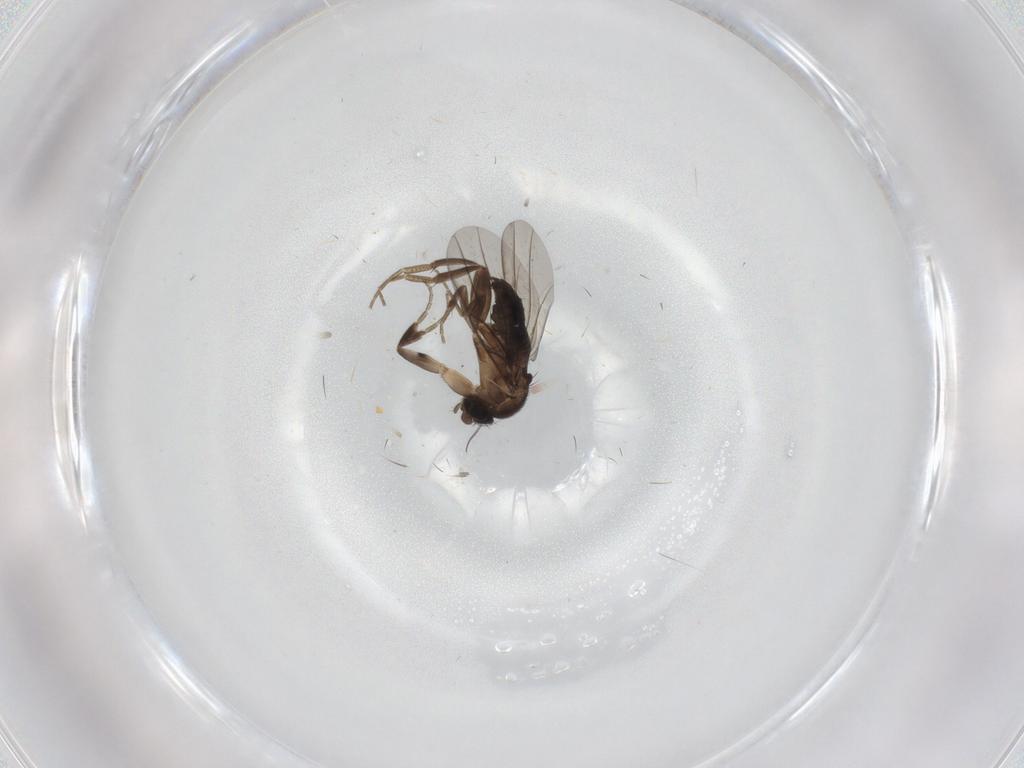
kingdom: Animalia
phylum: Arthropoda
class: Insecta
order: Diptera
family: Phoridae
